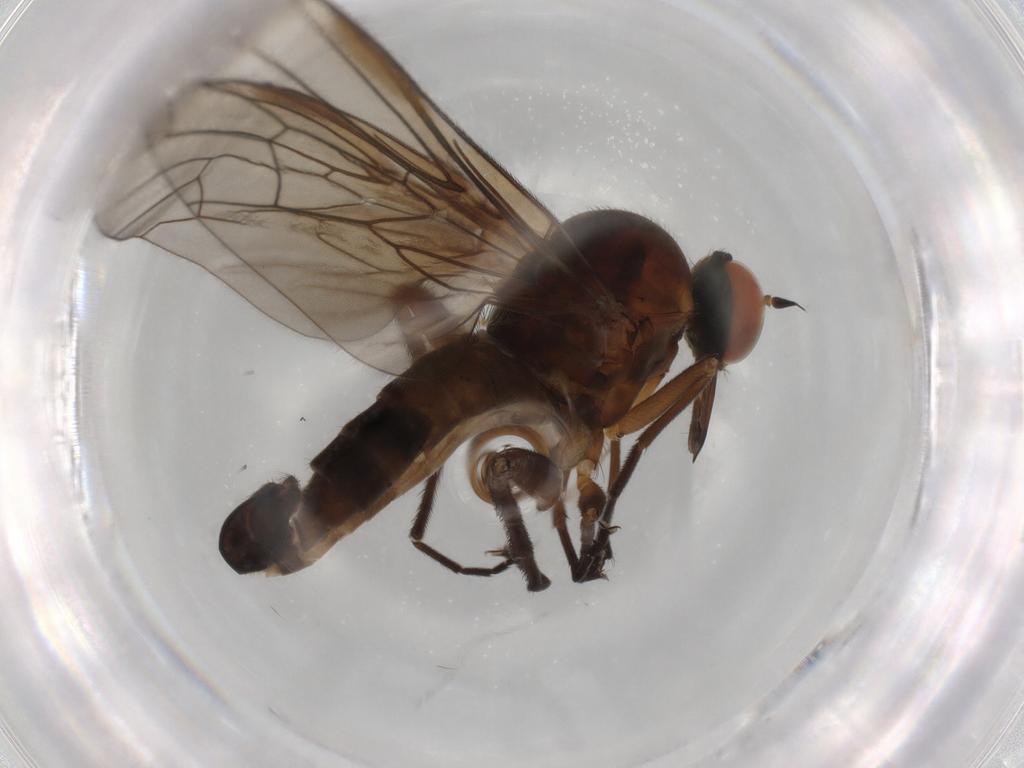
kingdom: Animalia
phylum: Arthropoda
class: Insecta
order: Diptera
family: Empididae
